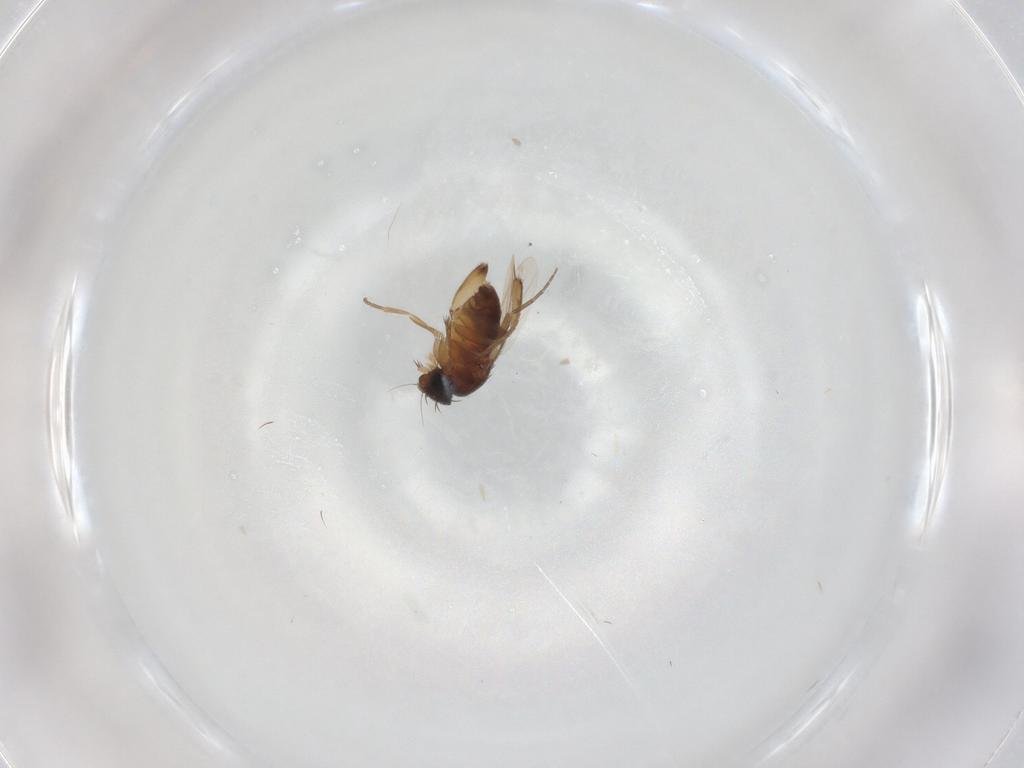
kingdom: Animalia
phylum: Arthropoda
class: Insecta
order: Diptera
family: Phoridae
